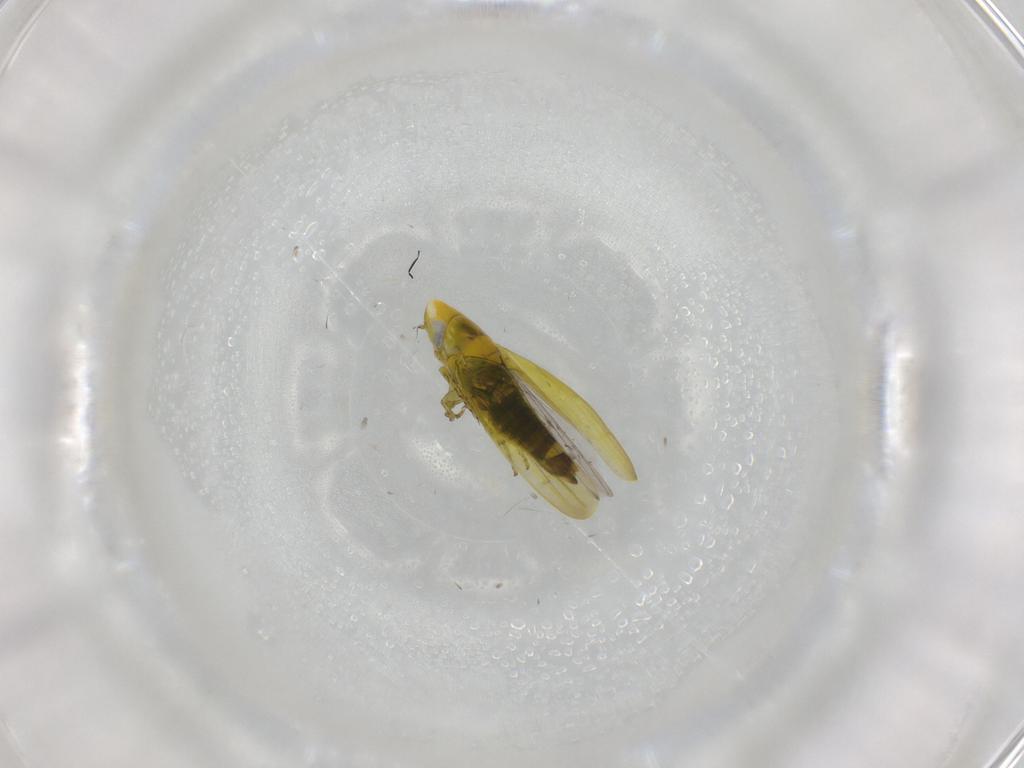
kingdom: Animalia
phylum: Arthropoda
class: Insecta
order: Hemiptera
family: Cicadellidae
